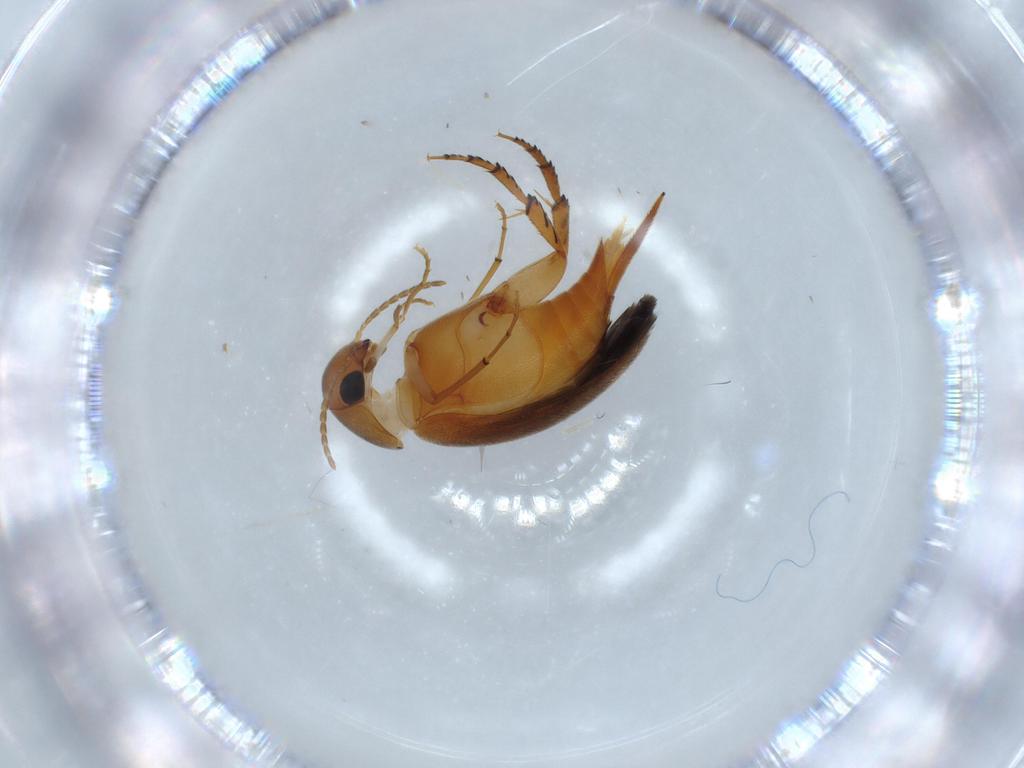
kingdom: Animalia
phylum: Arthropoda
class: Insecta
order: Coleoptera
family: Mordellidae
